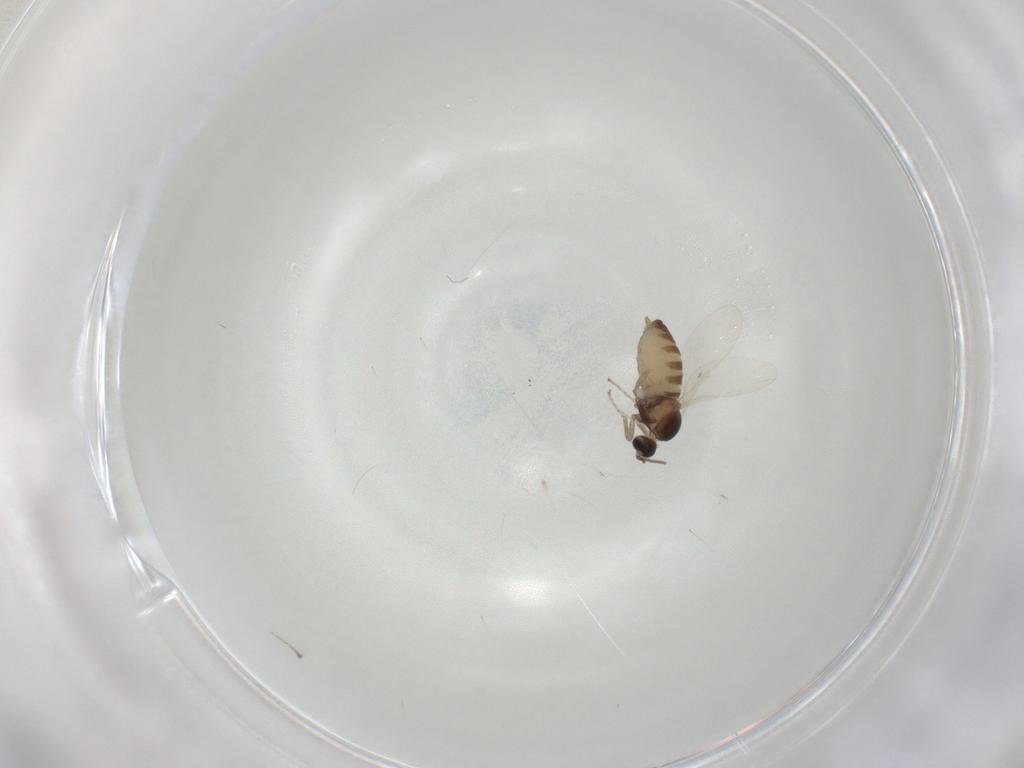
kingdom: Animalia
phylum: Arthropoda
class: Insecta
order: Diptera
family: Cecidomyiidae
